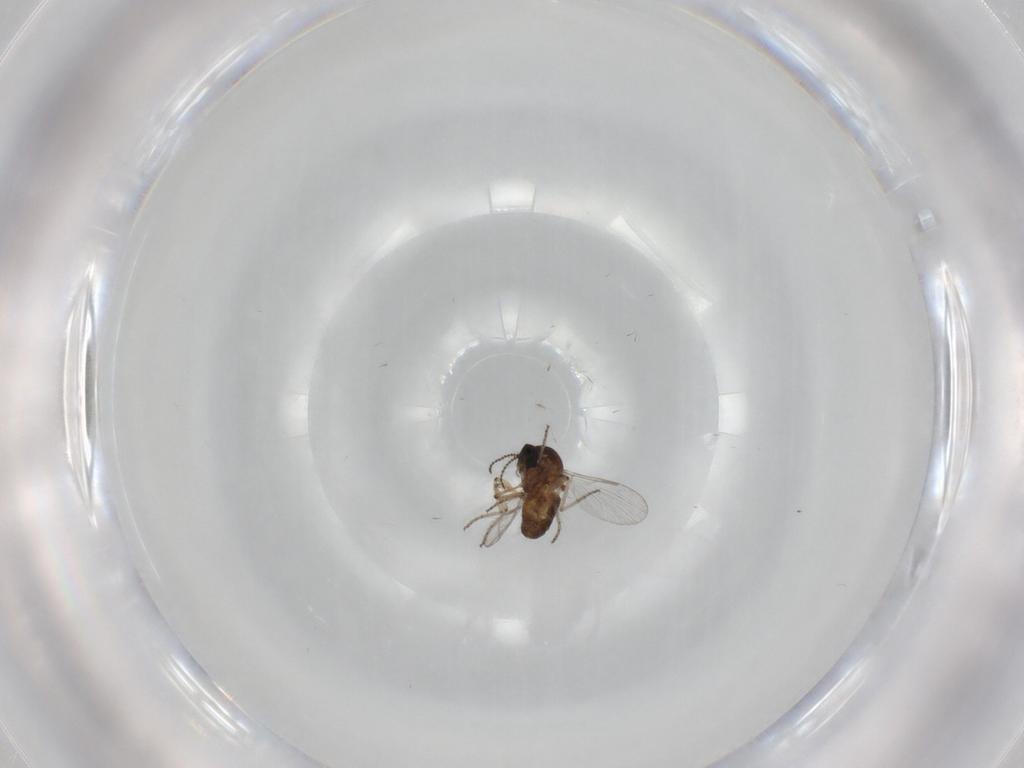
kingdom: Animalia
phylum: Arthropoda
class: Insecta
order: Diptera
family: Ceratopogonidae
